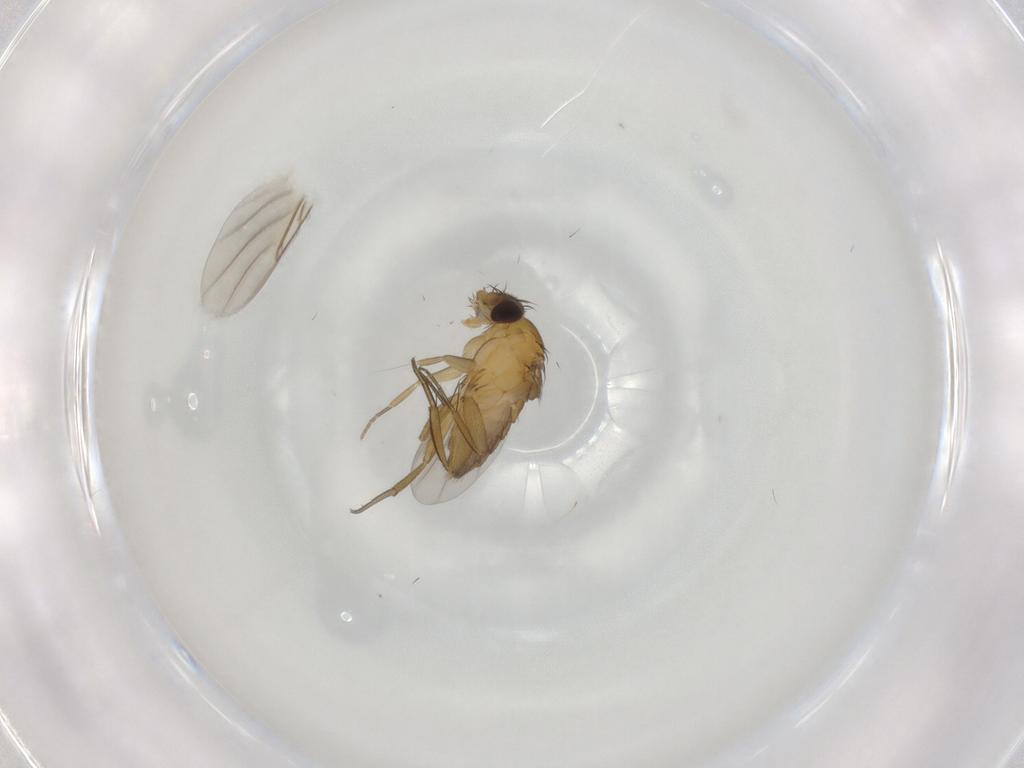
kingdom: Animalia
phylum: Arthropoda
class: Insecta
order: Diptera
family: Phoridae
